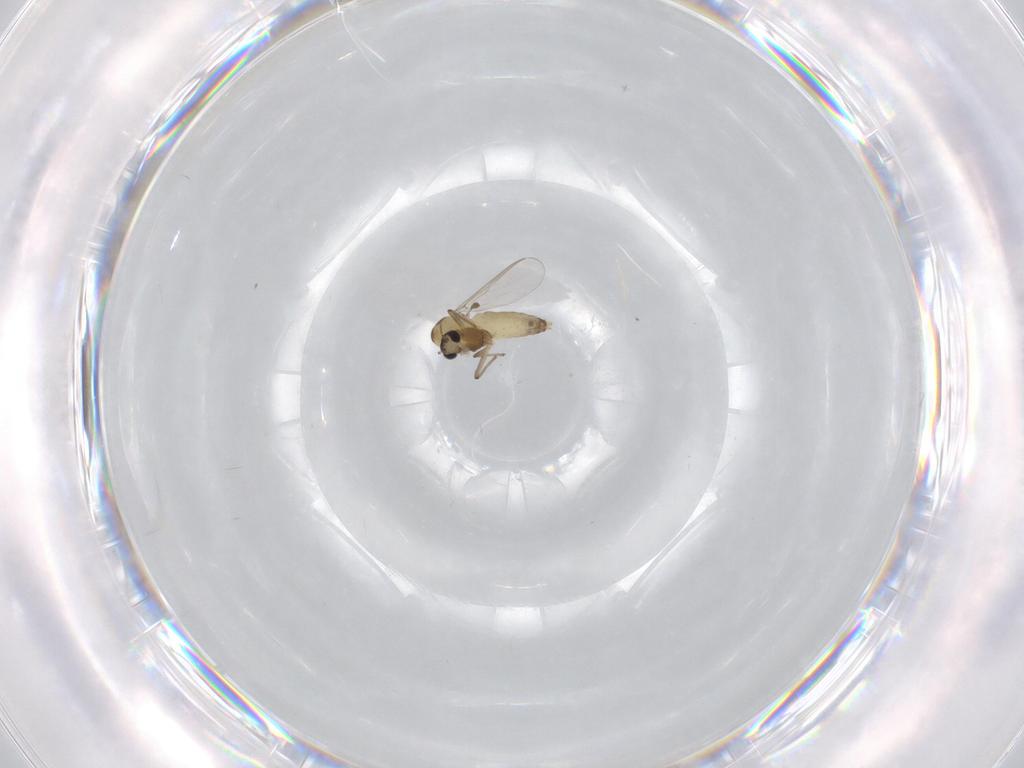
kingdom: Animalia
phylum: Arthropoda
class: Insecta
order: Diptera
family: Chironomidae
